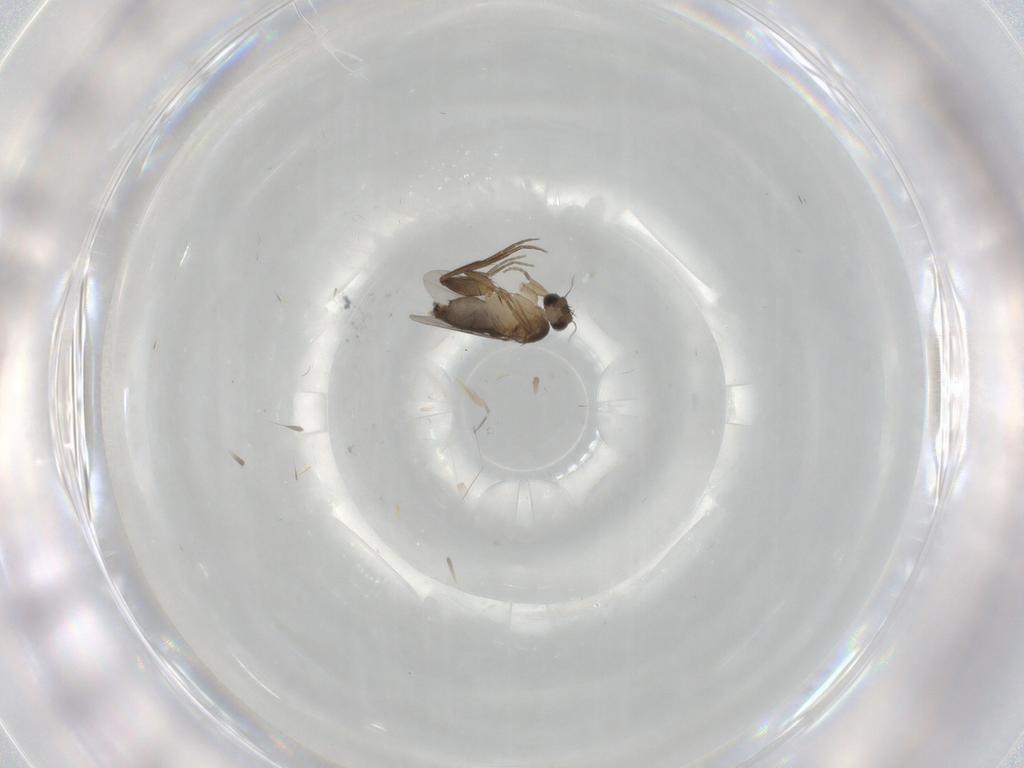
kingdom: Animalia
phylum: Arthropoda
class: Insecta
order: Diptera
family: Phoridae
